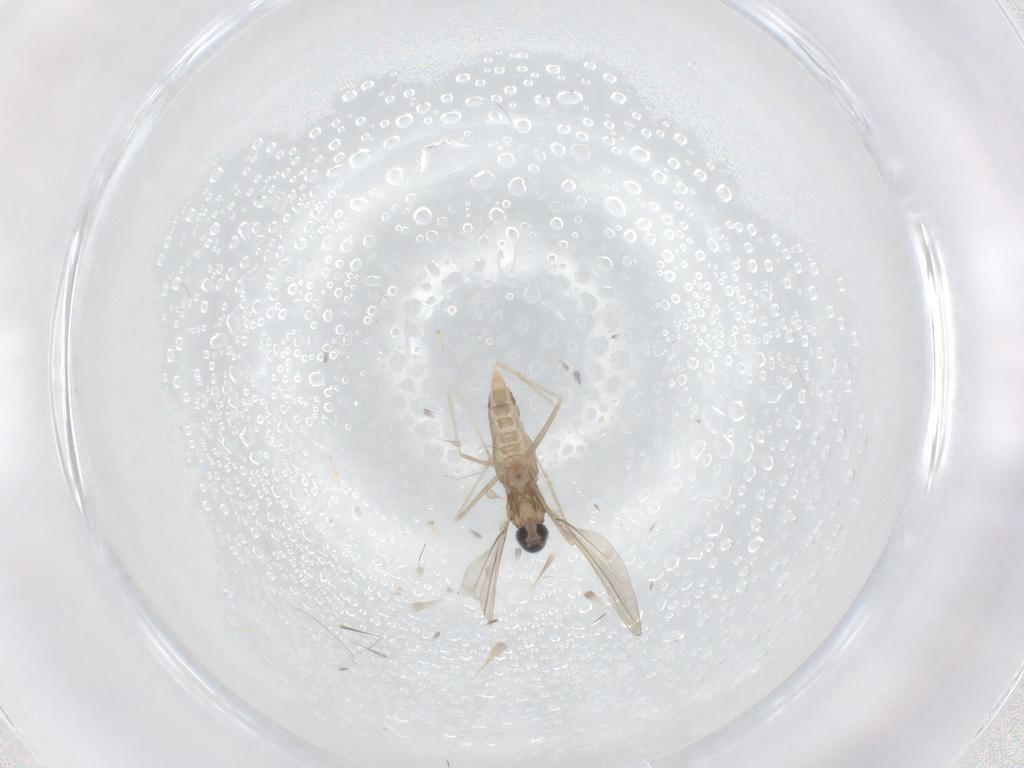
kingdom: Animalia
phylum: Arthropoda
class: Insecta
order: Diptera
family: Cecidomyiidae
